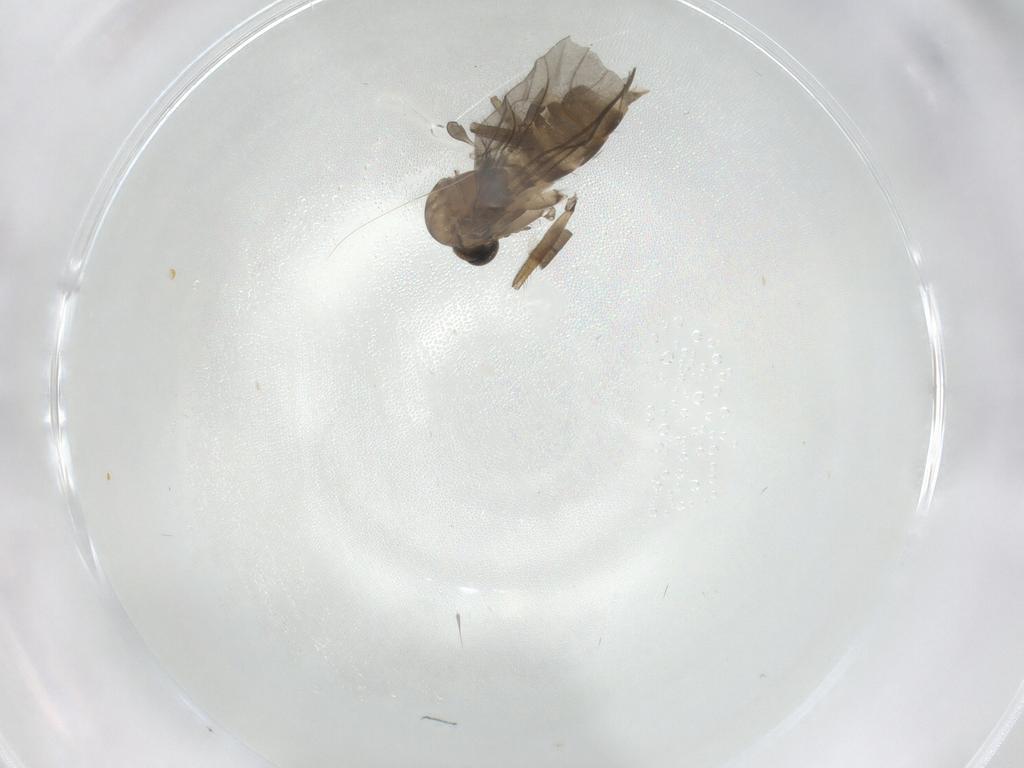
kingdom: Animalia
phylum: Arthropoda
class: Insecta
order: Diptera
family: Sciaridae
